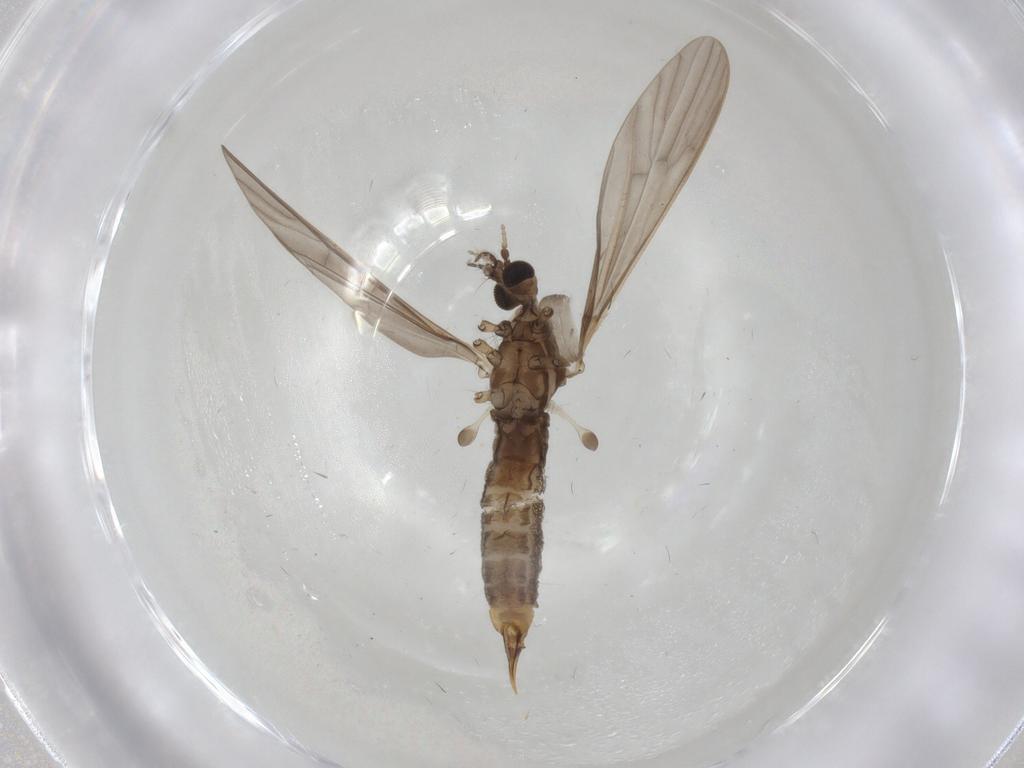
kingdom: Animalia
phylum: Arthropoda
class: Insecta
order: Diptera
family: Limoniidae
